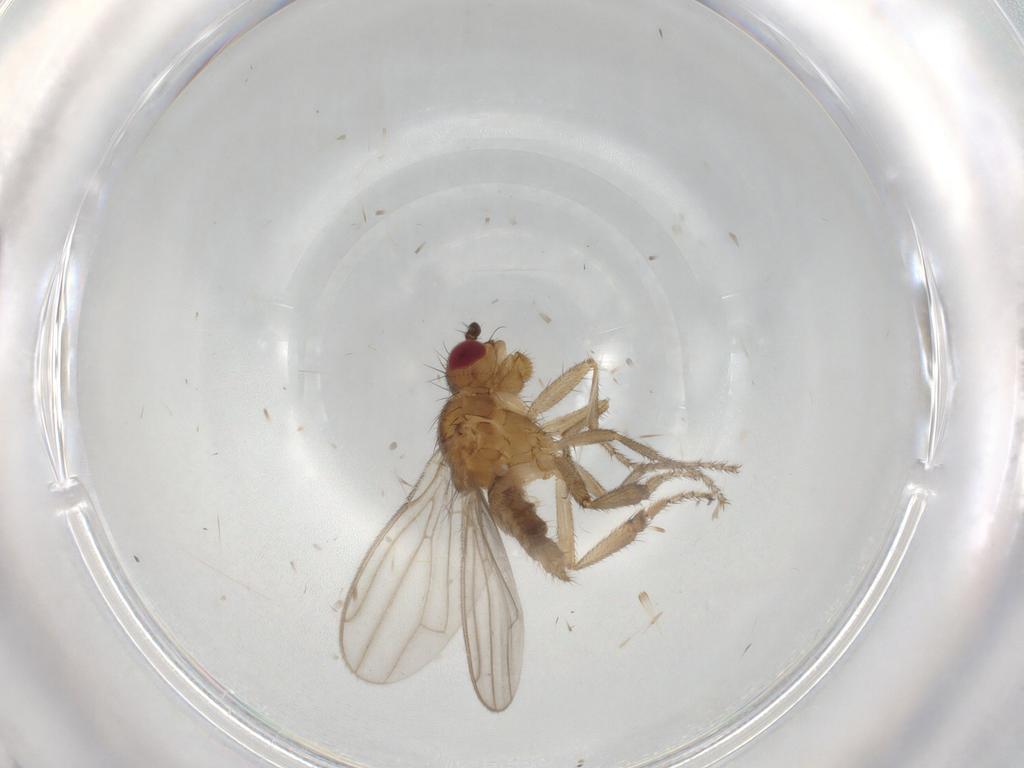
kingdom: Animalia
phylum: Arthropoda
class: Insecta
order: Diptera
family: Sphaeroceridae
